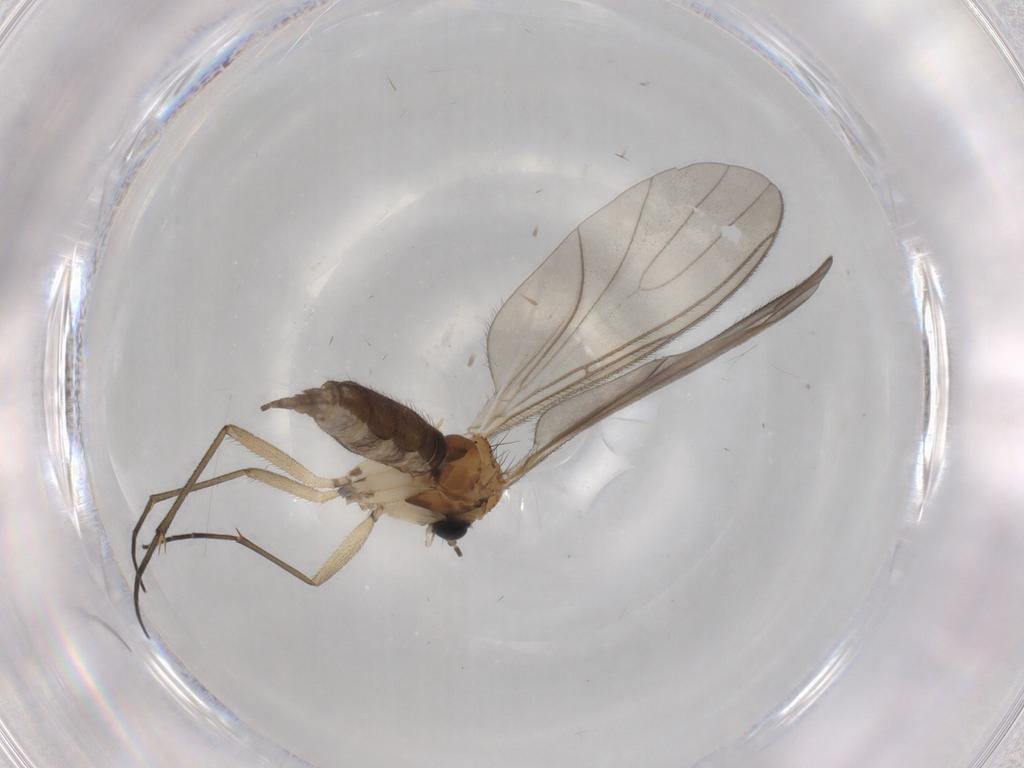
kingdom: Animalia
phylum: Arthropoda
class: Insecta
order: Diptera
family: Sciaridae
